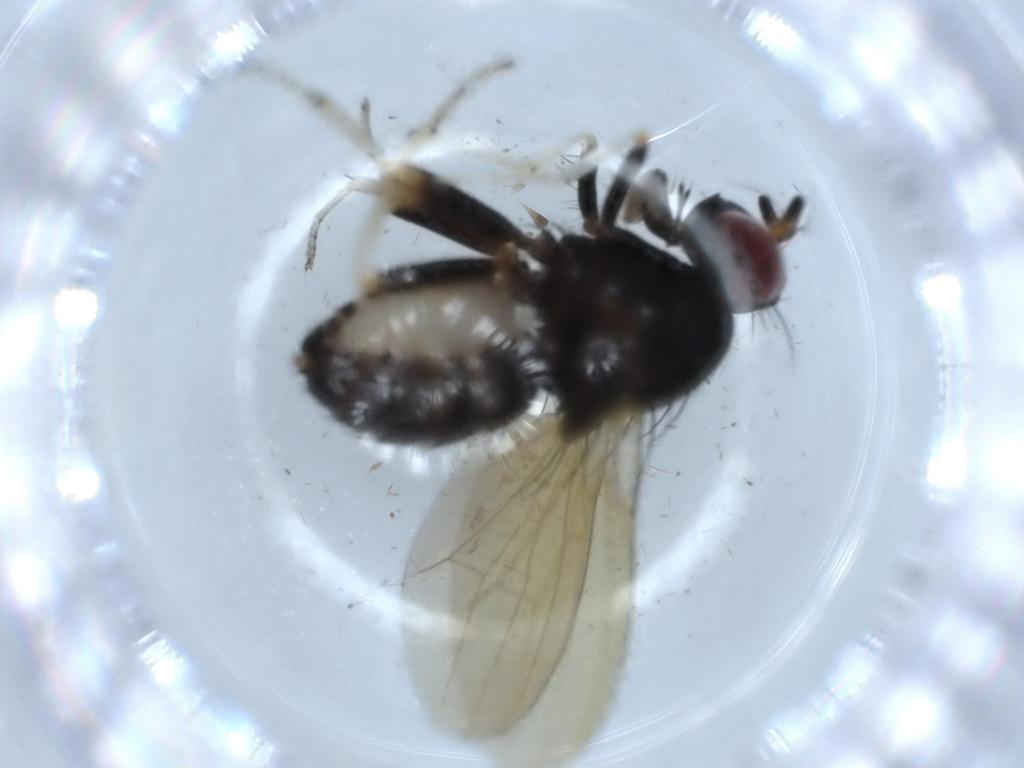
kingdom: Animalia
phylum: Arthropoda
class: Insecta
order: Diptera
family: Lauxaniidae
